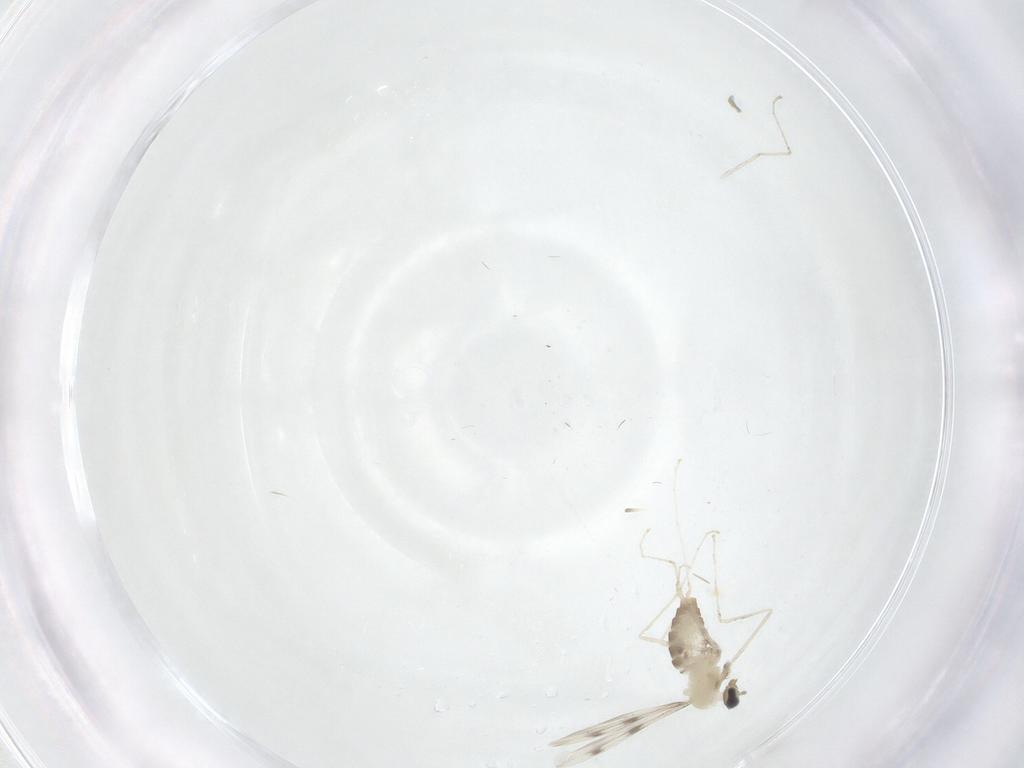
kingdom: Animalia
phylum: Arthropoda
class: Insecta
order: Diptera
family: Cecidomyiidae
